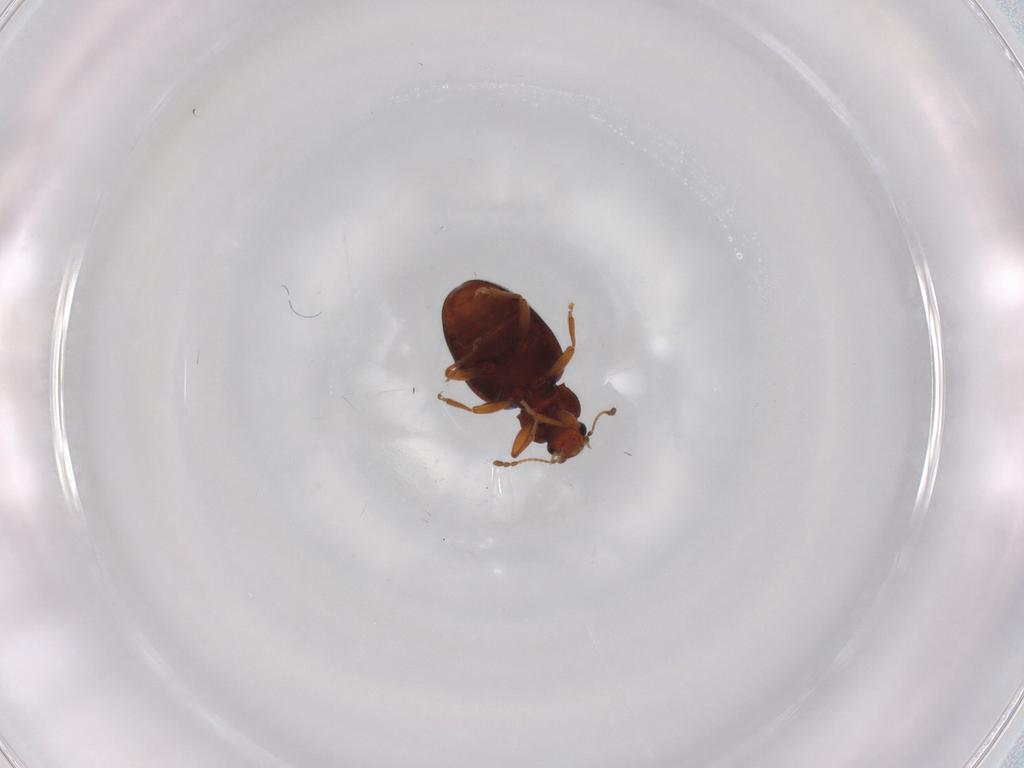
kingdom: Animalia
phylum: Arthropoda
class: Insecta
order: Coleoptera
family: Latridiidae
